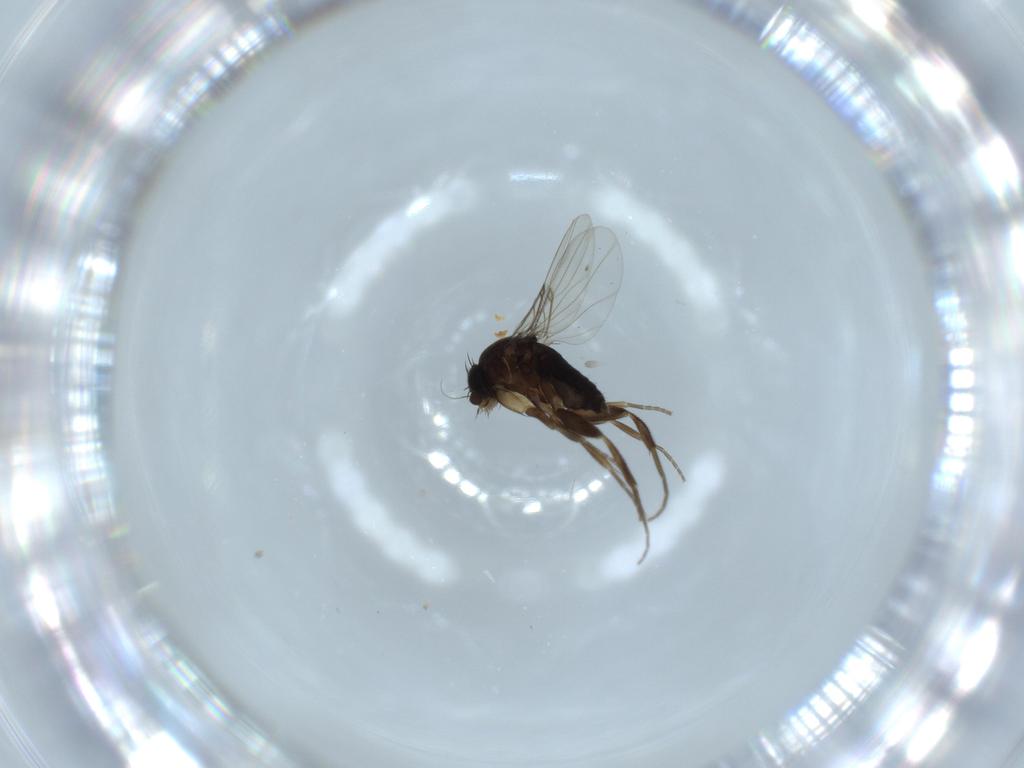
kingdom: Animalia
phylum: Arthropoda
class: Insecta
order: Diptera
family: Phoridae
